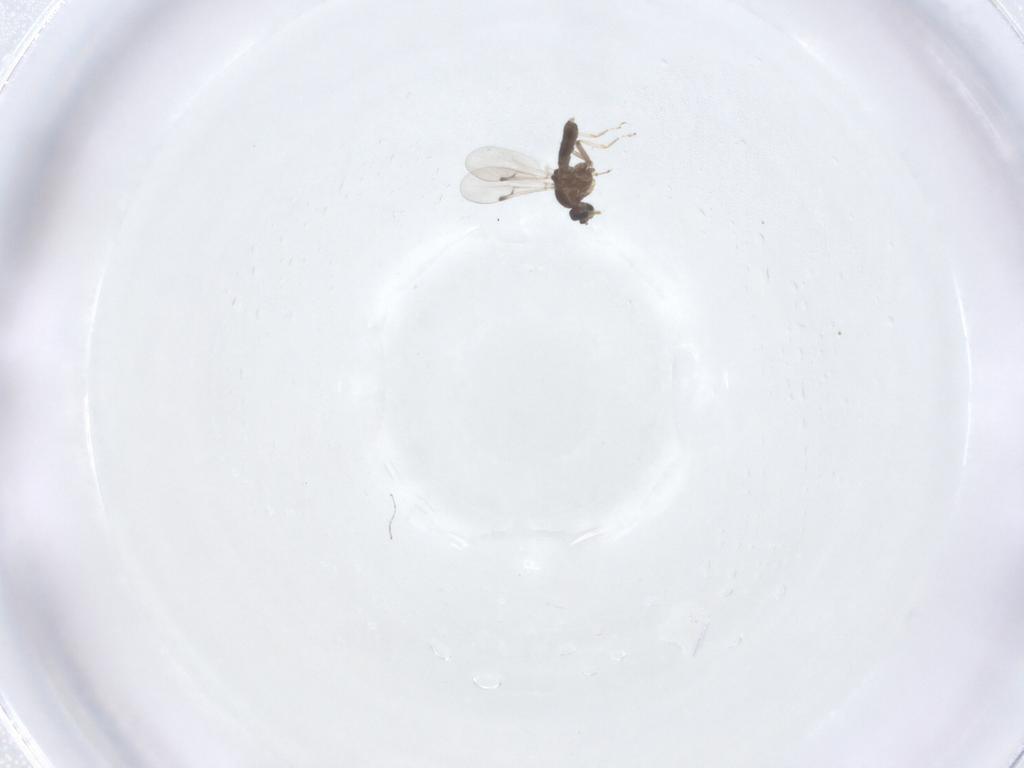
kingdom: Animalia
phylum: Arthropoda
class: Insecta
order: Diptera
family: Ceratopogonidae
